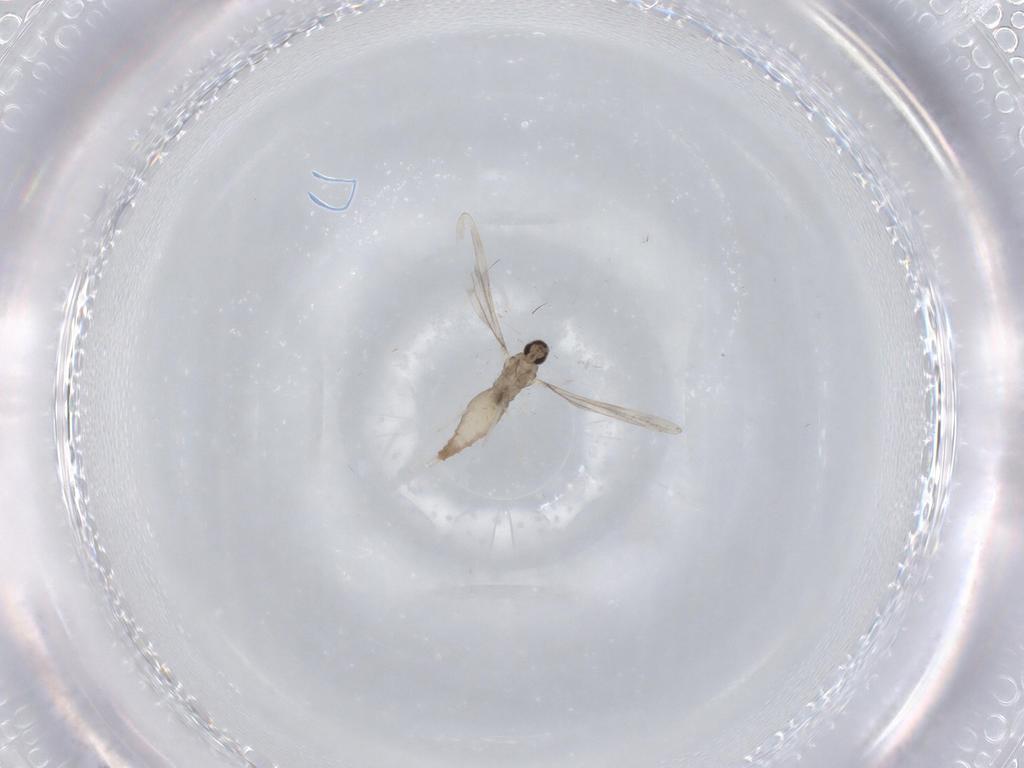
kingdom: Animalia
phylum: Arthropoda
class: Insecta
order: Diptera
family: Cecidomyiidae
